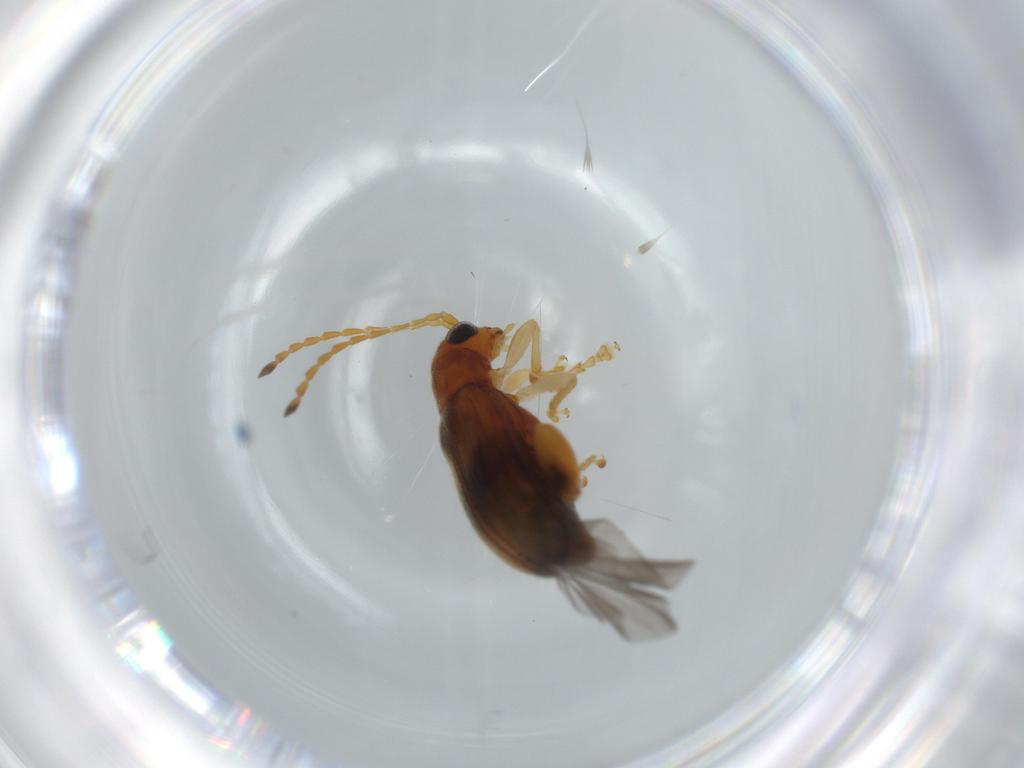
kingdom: Animalia
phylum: Arthropoda
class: Insecta
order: Coleoptera
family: Chrysomelidae
